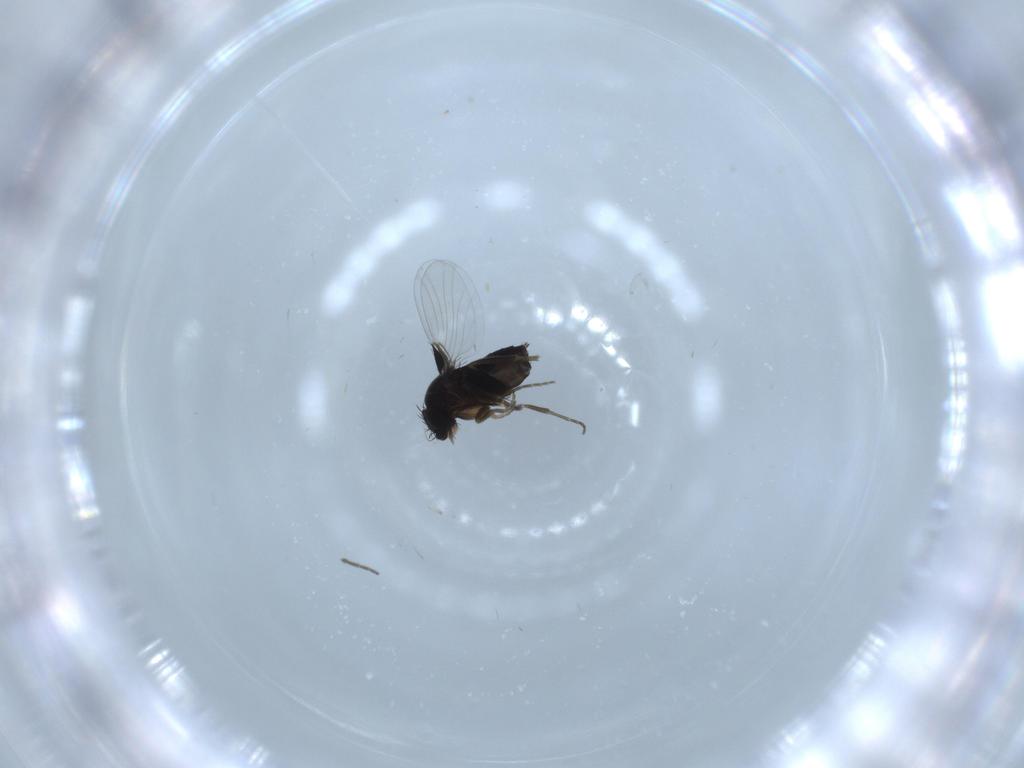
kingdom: Animalia
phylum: Arthropoda
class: Insecta
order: Diptera
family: Phoridae
